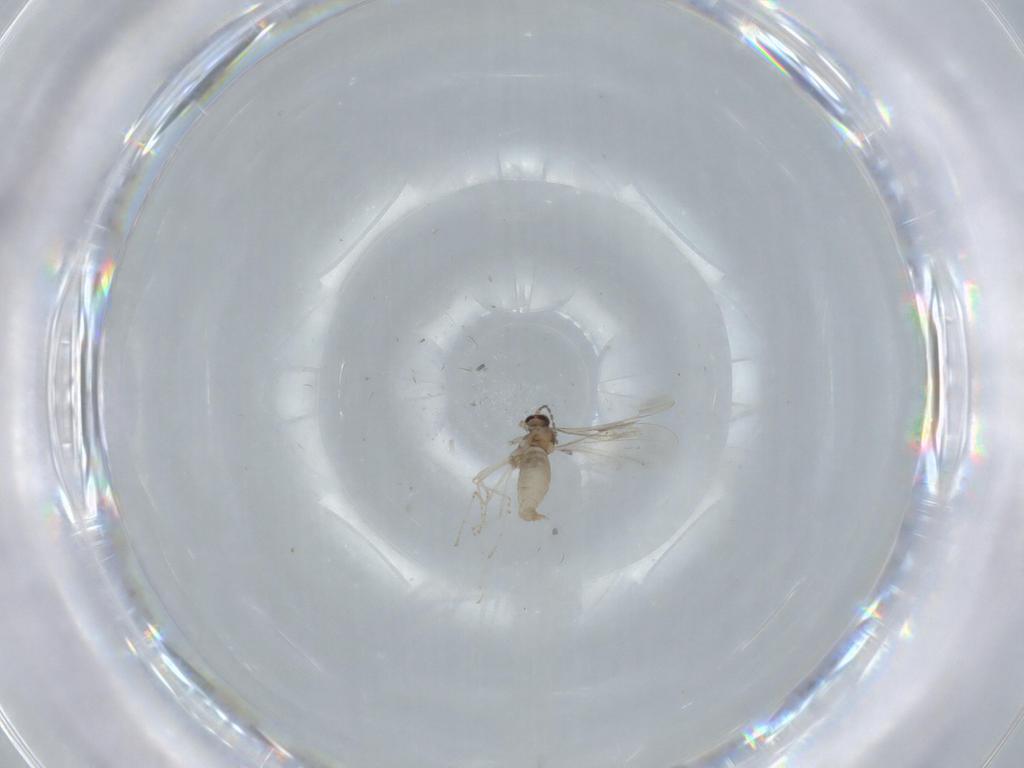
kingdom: Animalia
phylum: Arthropoda
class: Insecta
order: Diptera
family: Cecidomyiidae
